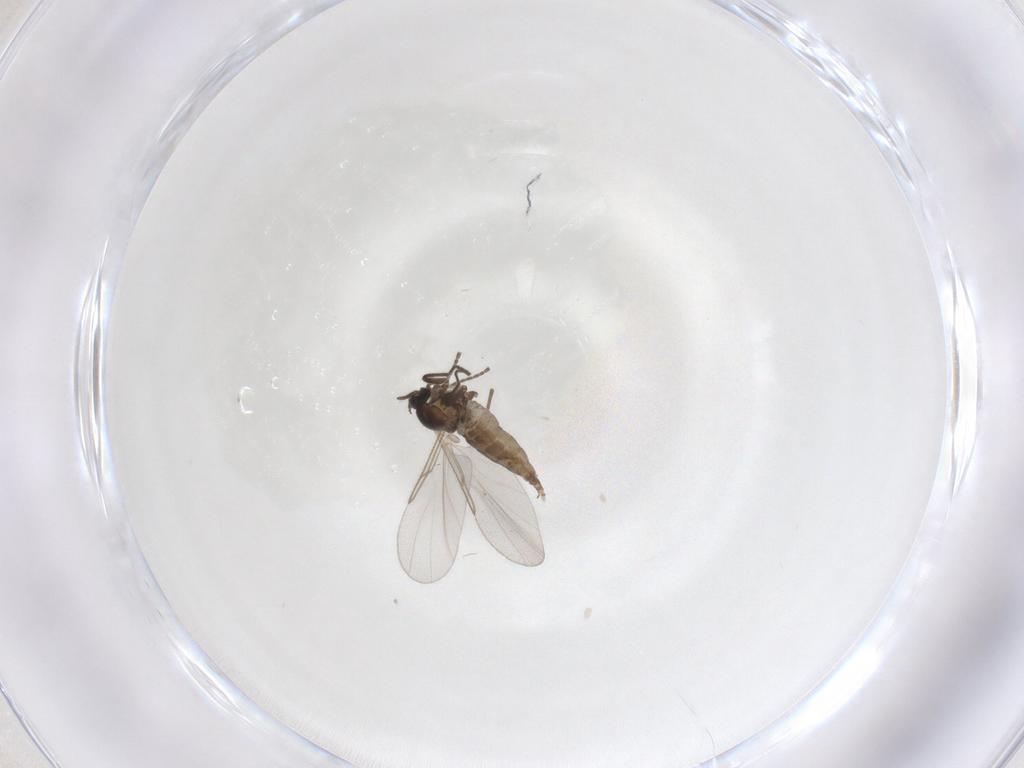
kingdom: Animalia
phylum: Arthropoda
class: Insecta
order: Diptera
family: Cecidomyiidae
